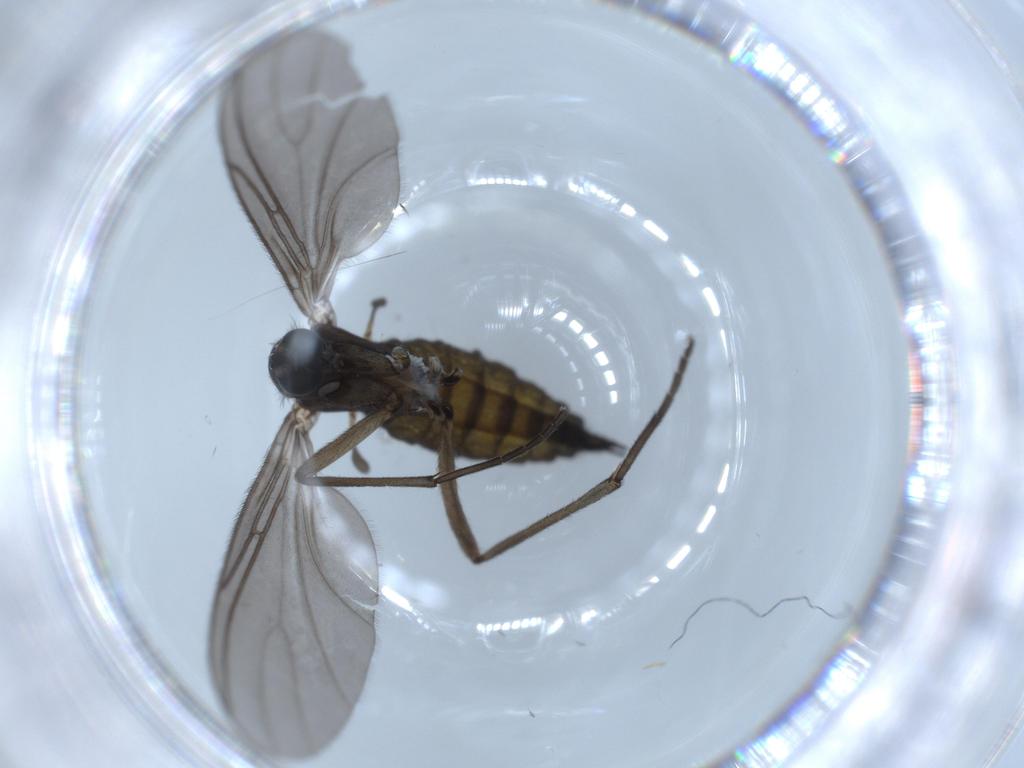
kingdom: Animalia
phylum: Arthropoda
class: Insecta
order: Diptera
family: Sciaridae
